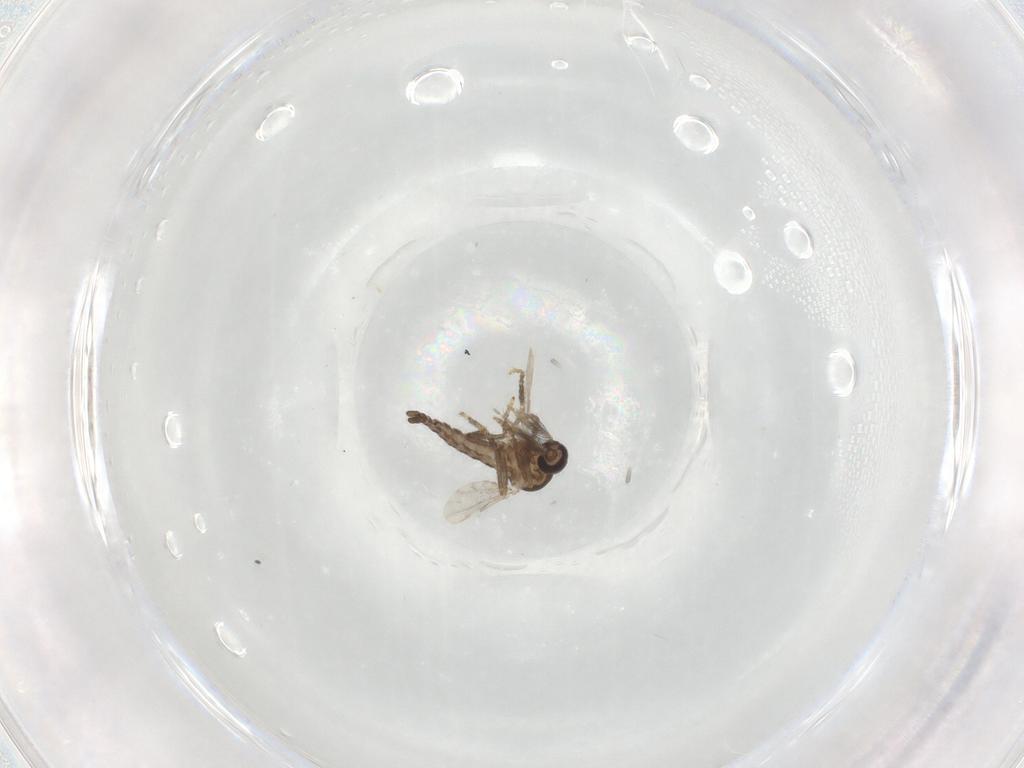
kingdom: Animalia
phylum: Arthropoda
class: Insecta
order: Diptera
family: Ceratopogonidae
